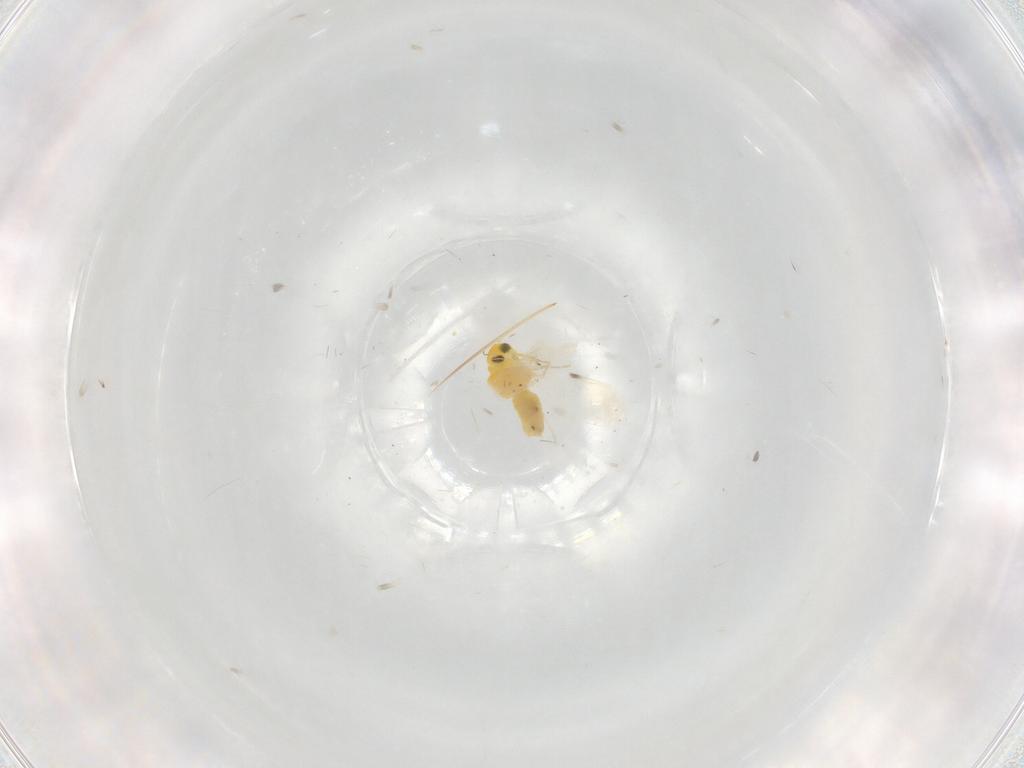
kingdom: Animalia
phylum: Arthropoda
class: Insecta
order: Hemiptera
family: Aleyrodidae
